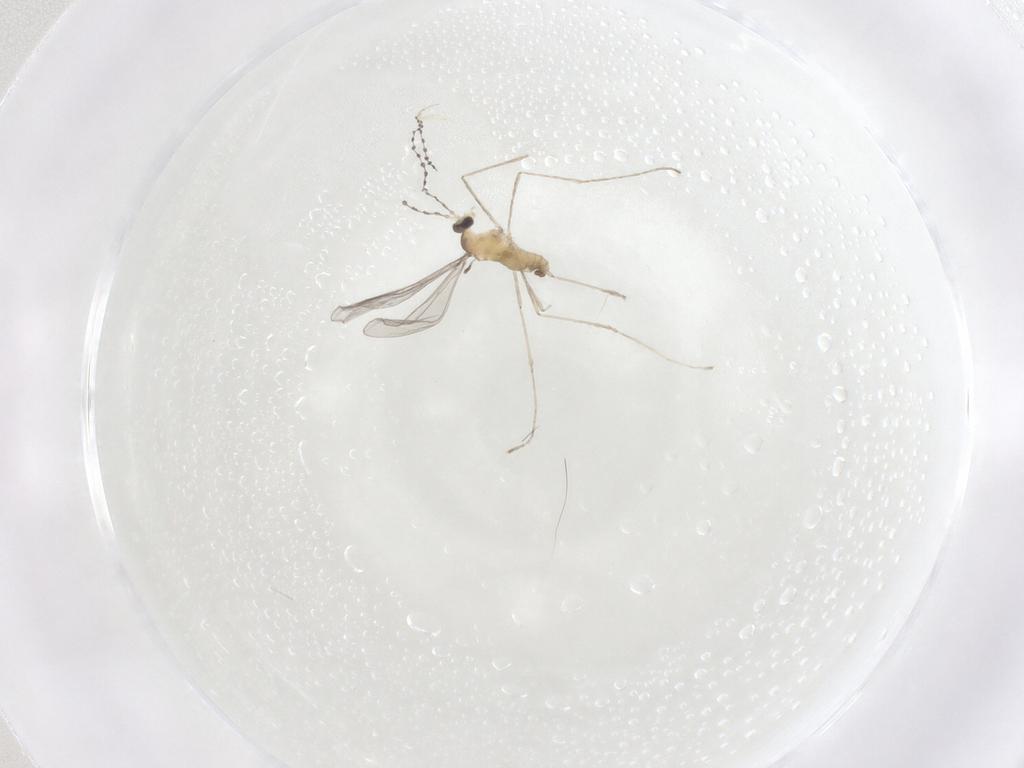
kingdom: Animalia
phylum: Arthropoda
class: Insecta
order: Diptera
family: Cecidomyiidae
